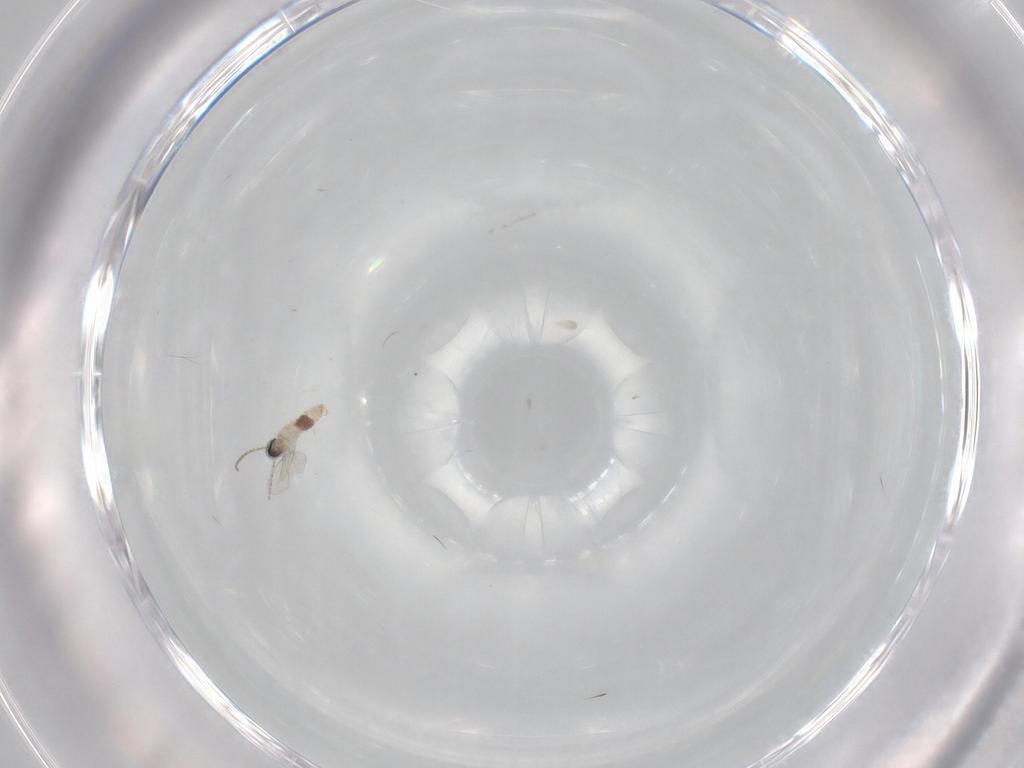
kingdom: Animalia
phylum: Arthropoda
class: Insecta
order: Diptera
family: Cecidomyiidae
